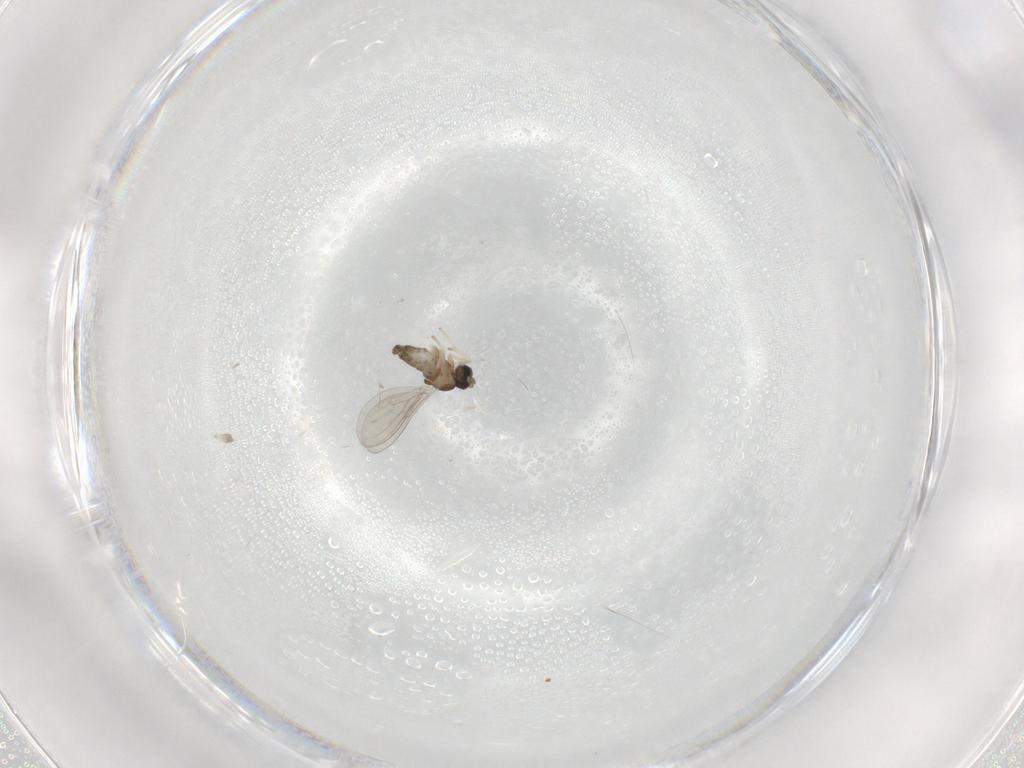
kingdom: Animalia
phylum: Arthropoda
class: Insecta
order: Diptera
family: Cecidomyiidae
